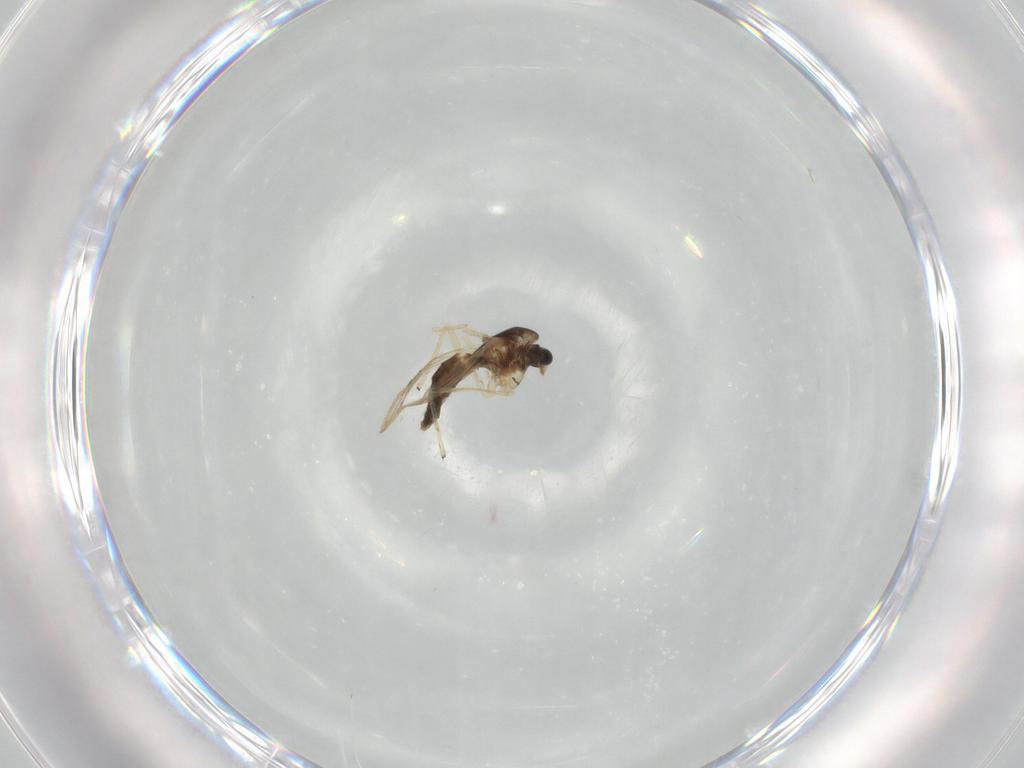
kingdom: Animalia
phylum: Arthropoda
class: Insecta
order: Diptera
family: Chironomidae
